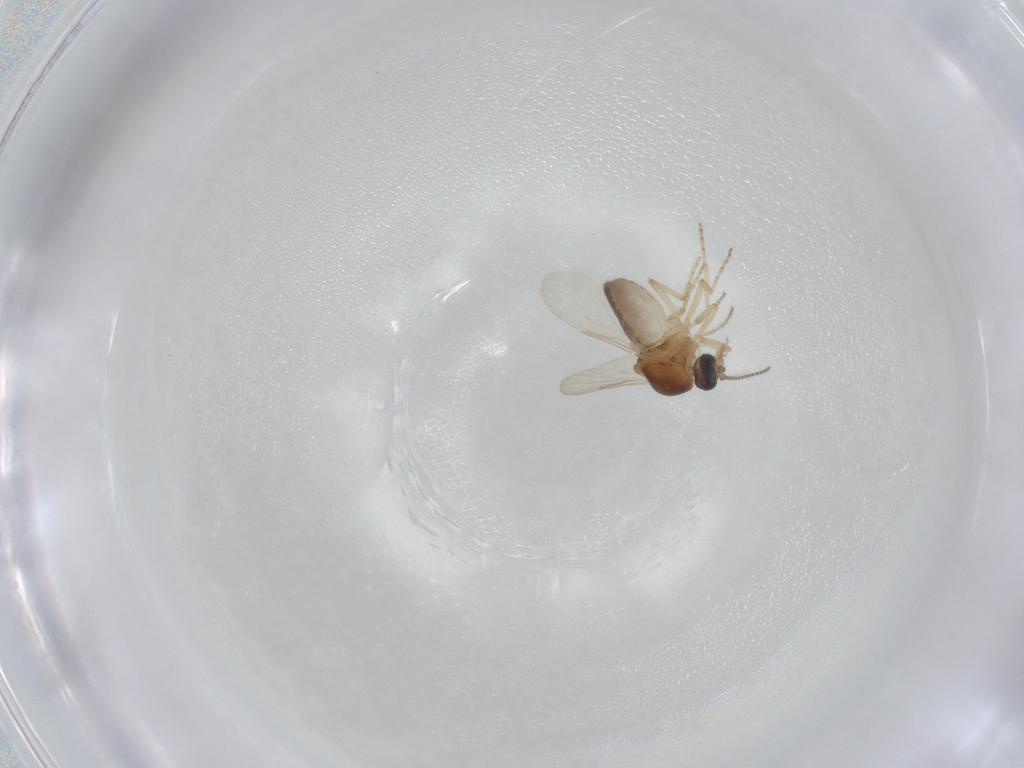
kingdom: Animalia
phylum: Arthropoda
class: Insecta
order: Diptera
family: Ceratopogonidae
